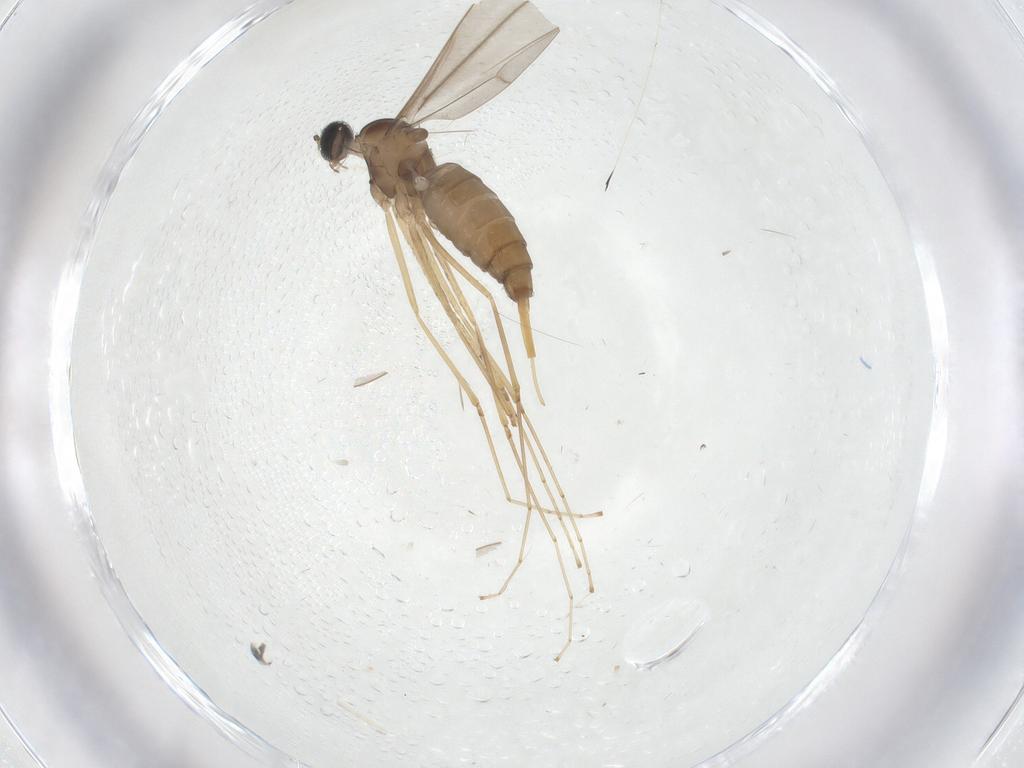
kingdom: Animalia
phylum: Arthropoda
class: Insecta
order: Diptera
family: Cecidomyiidae
